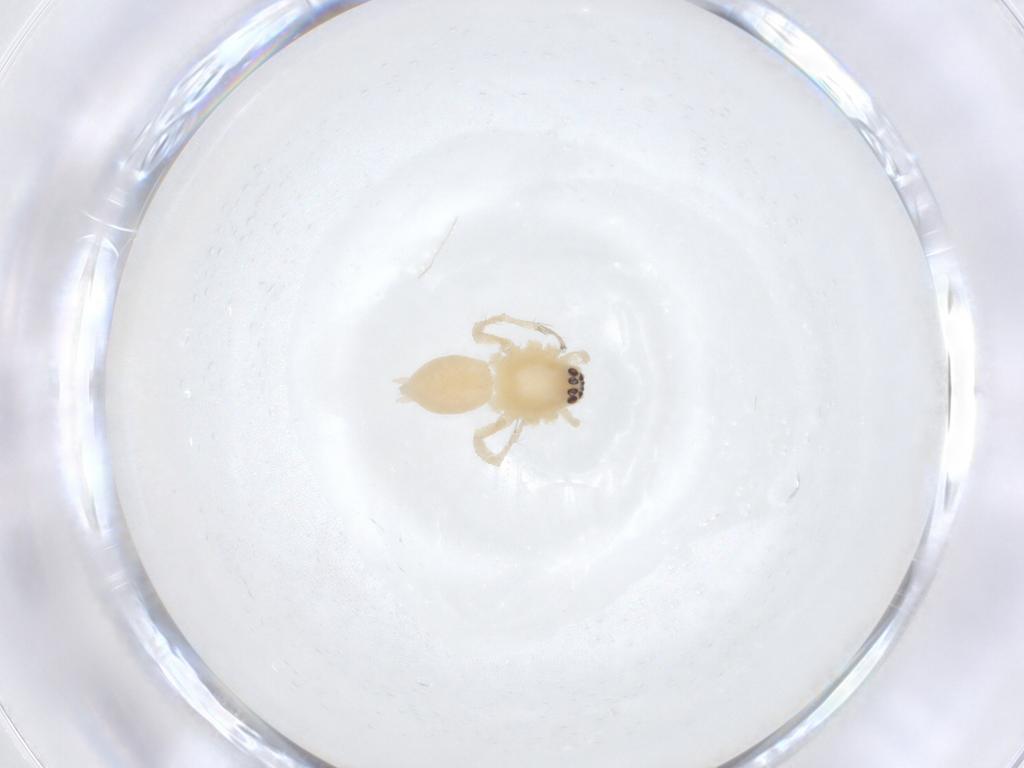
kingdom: Animalia
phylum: Arthropoda
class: Arachnida
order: Araneae
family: Anyphaenidae
